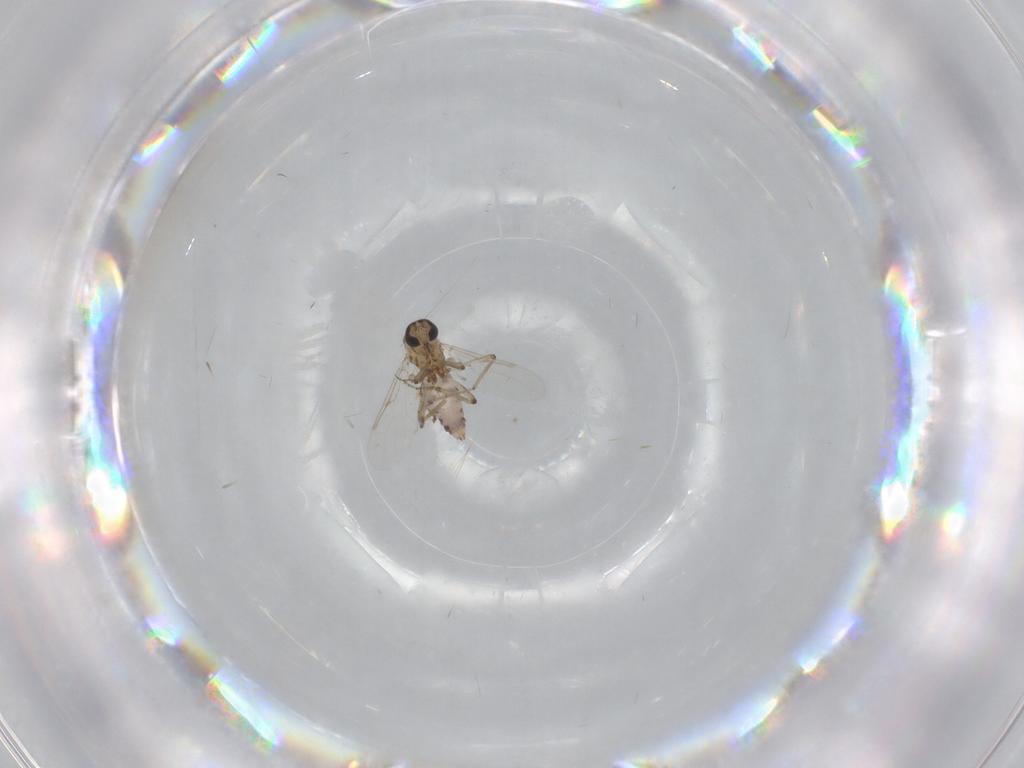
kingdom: Animalia
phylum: Arthropoda
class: Insecta
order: Diptera
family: Ceratopogonidae
